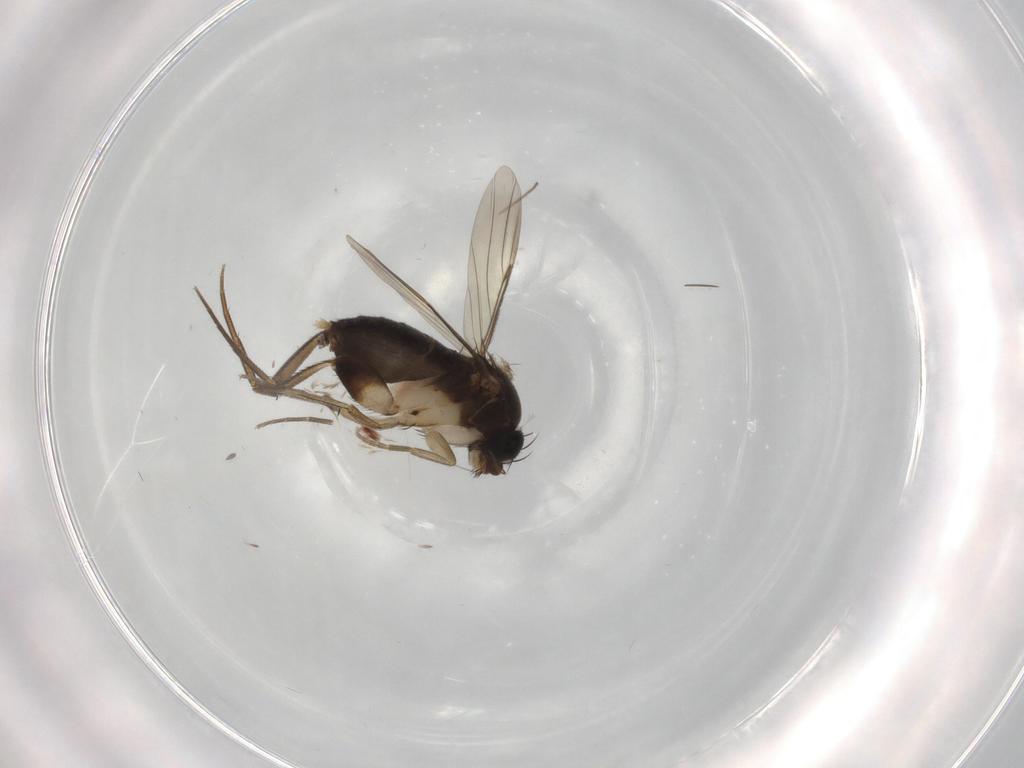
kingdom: Animalia
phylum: Arthropoda
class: Insecta
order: Diptera
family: Phoridae
